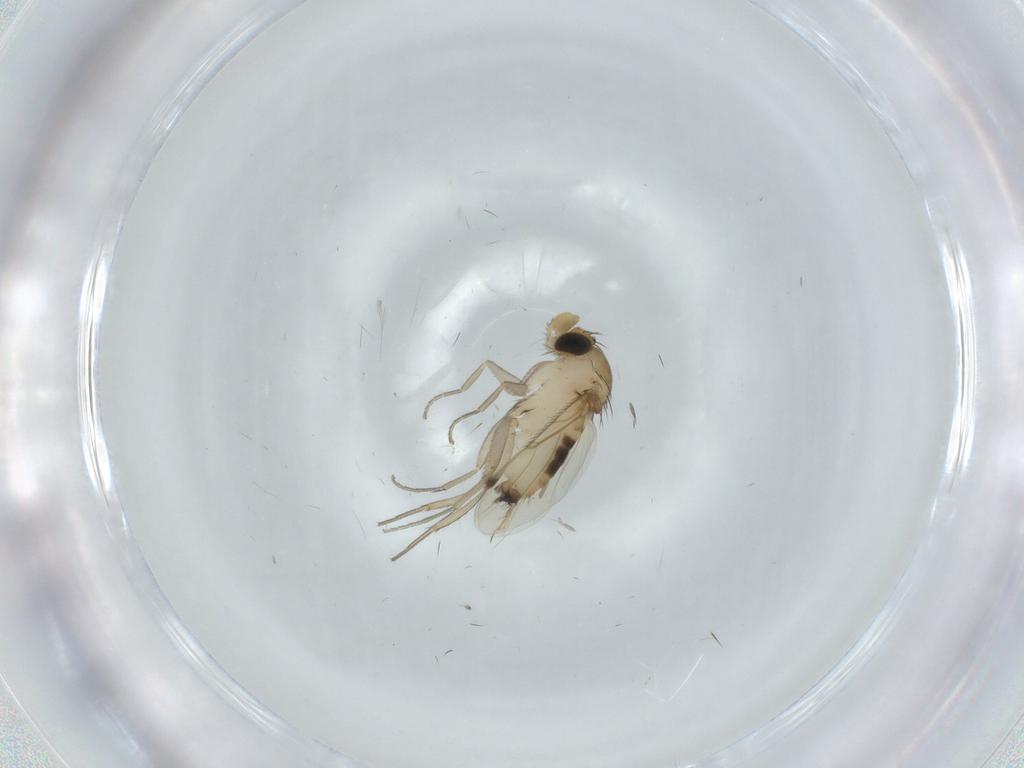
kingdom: Animalia
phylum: Arthropoda
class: Insecta
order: Diptera
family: Phoridae
